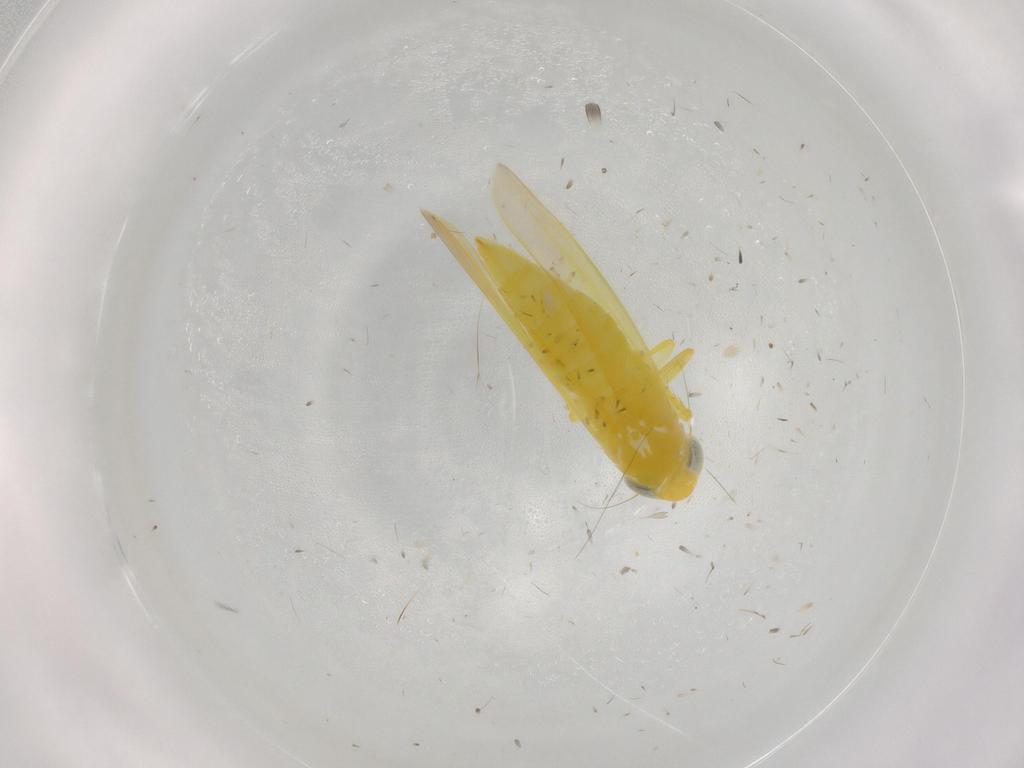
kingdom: Animalia
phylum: Arthropoda
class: Insecta
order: Hemiptera
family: Cicadellidae
